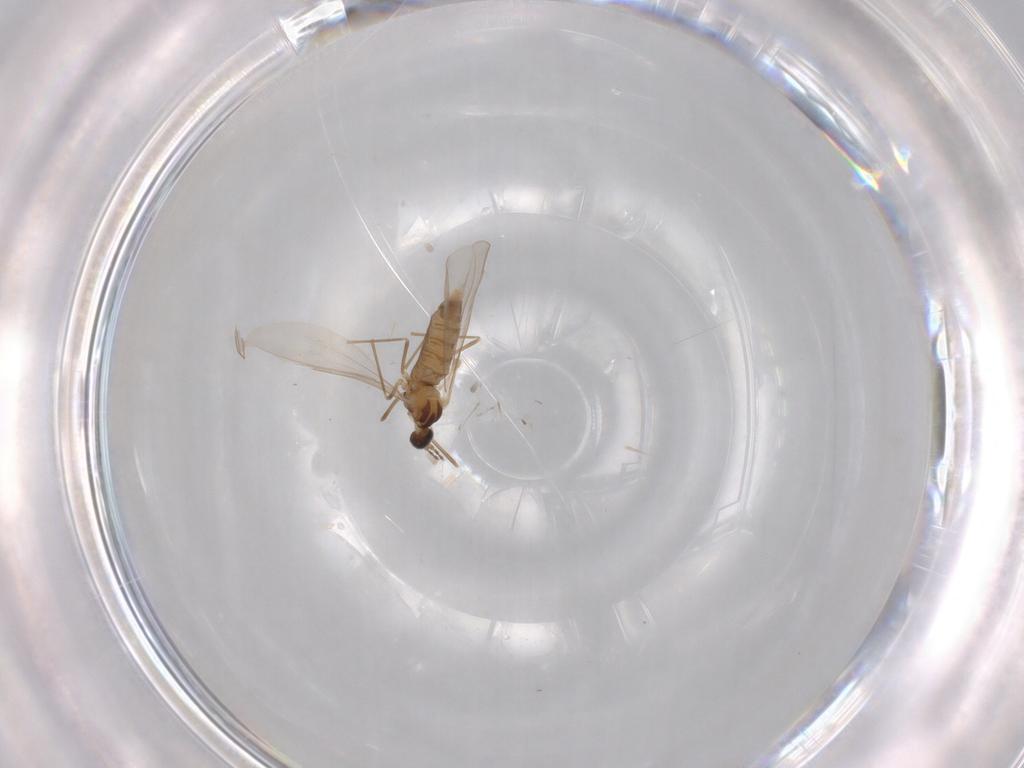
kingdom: Animalia
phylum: Arthropoda
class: Insecta
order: Diptera
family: Cecidomyiidae
